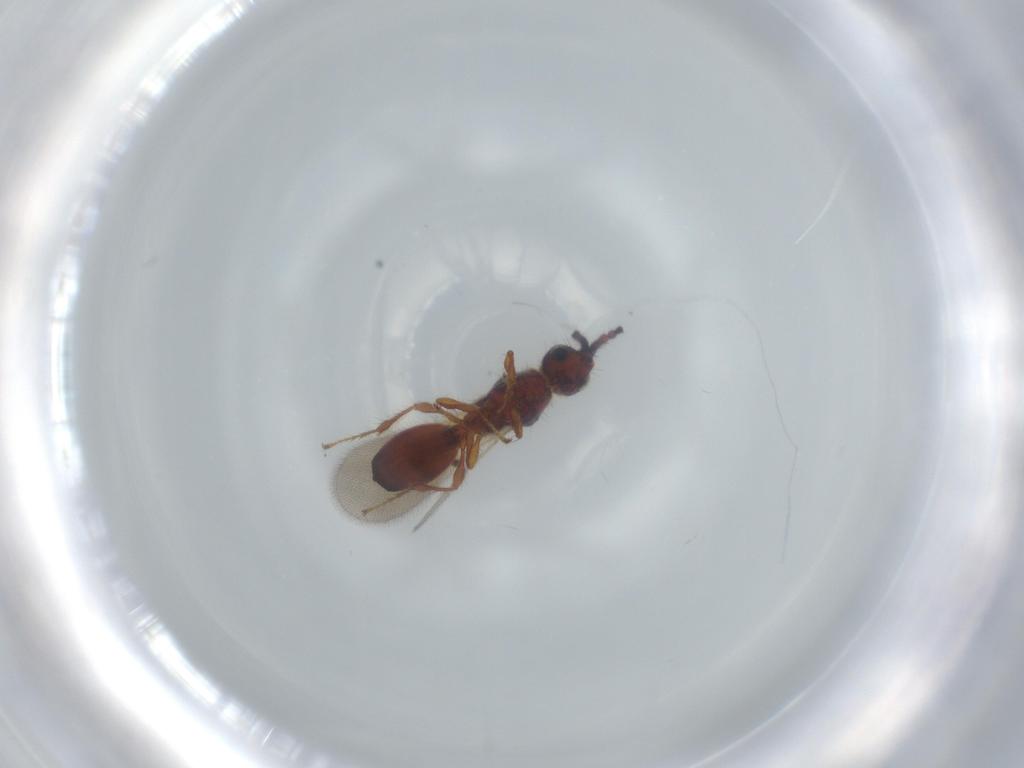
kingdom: Animalia
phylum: Arthropoda
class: Insecta
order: Hymenoptera
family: Diapriidae
